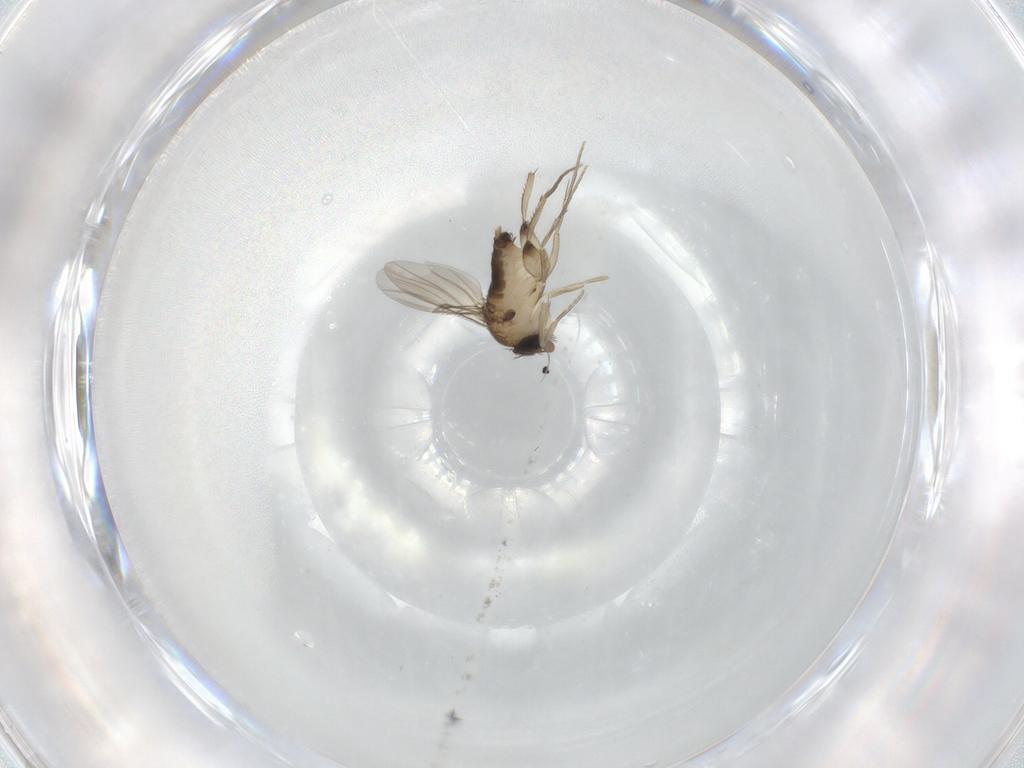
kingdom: Animalia
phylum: Arthropoda
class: Insecta
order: Diptera
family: Phoridae
